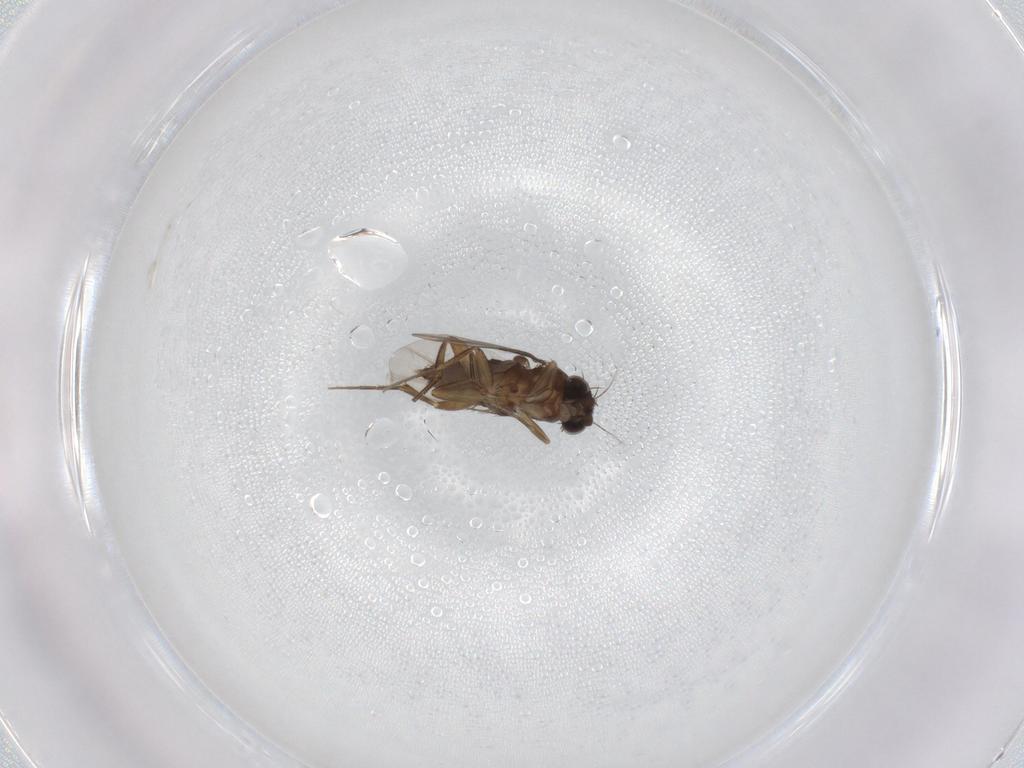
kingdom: Animalia
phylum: Arthropoda
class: Insecta
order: Diptera
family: Phoridae
